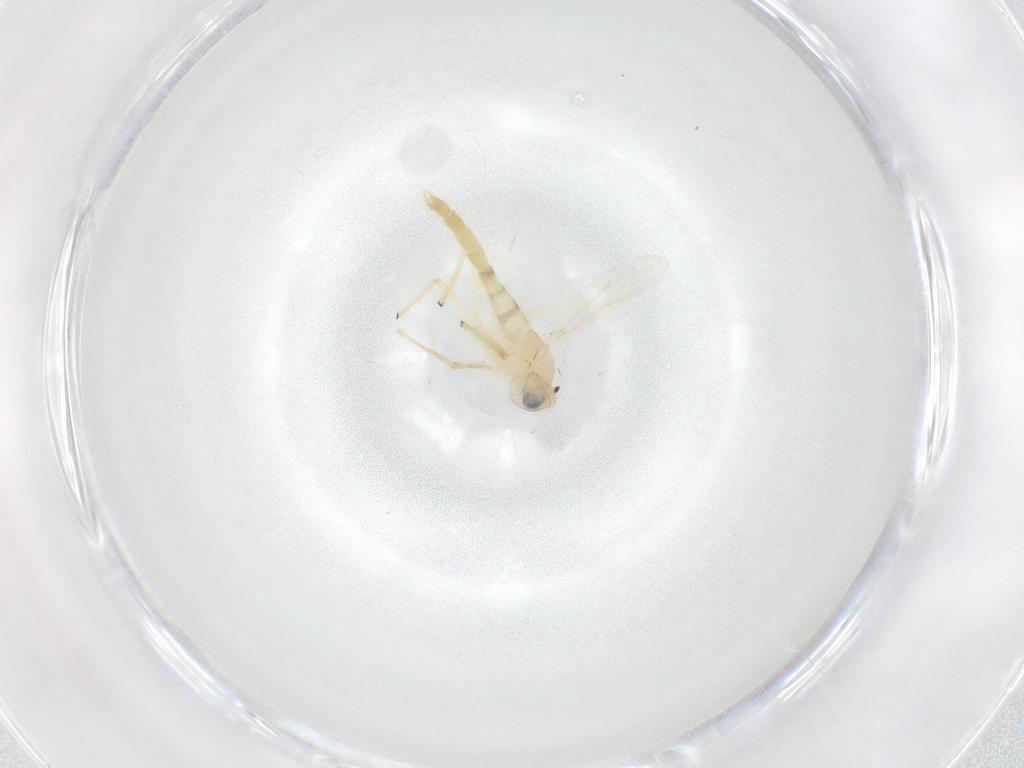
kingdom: Animalia
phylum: Arthropoda
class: Insecta
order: Diptera
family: Chironomidae
